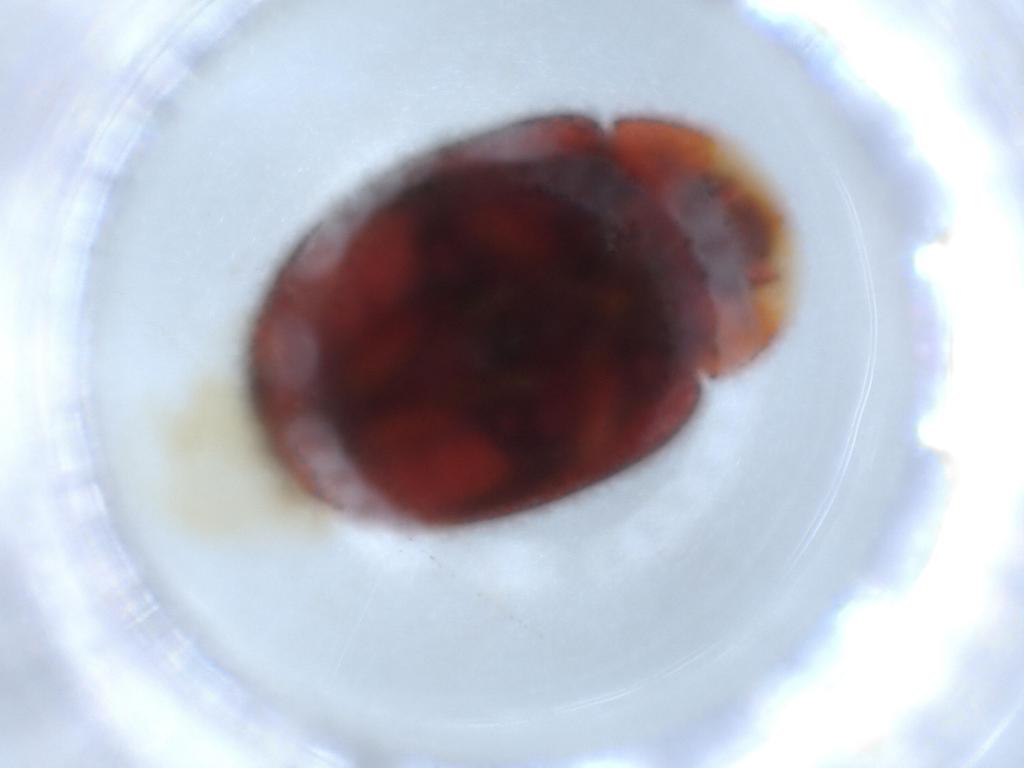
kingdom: Animalia
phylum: Arthropoda
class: Insecta
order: Coleoptera
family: Coccinellidae
